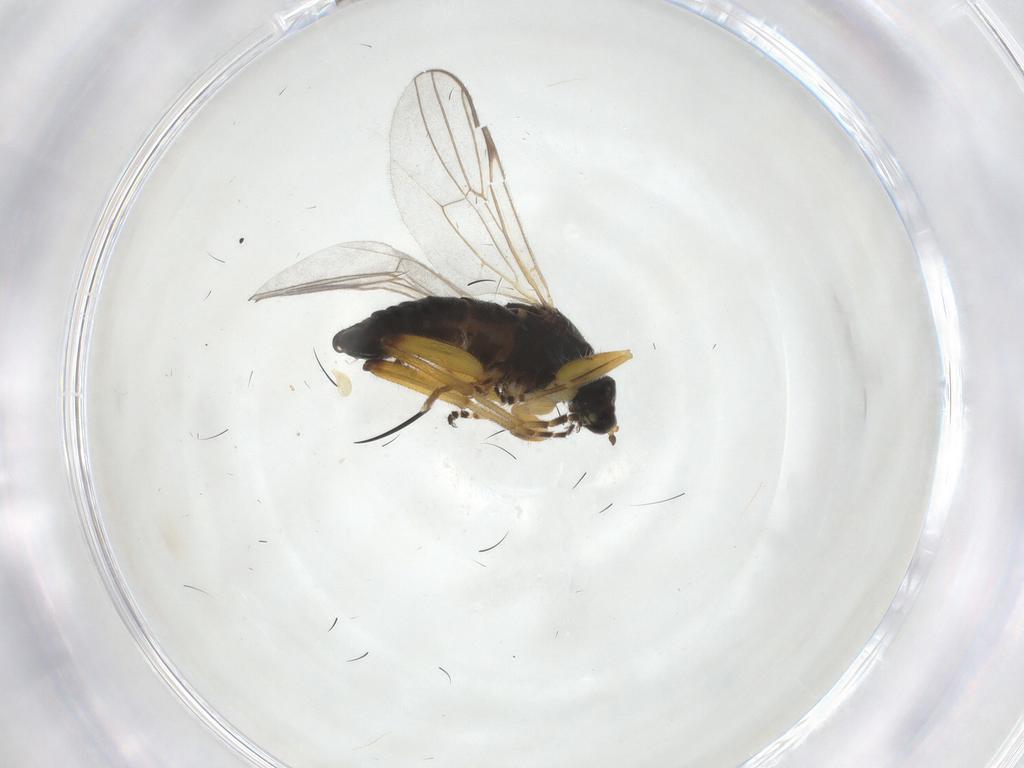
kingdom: Animalia
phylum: Arthropoda
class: Insecta
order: Diptera
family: Hybotidae
